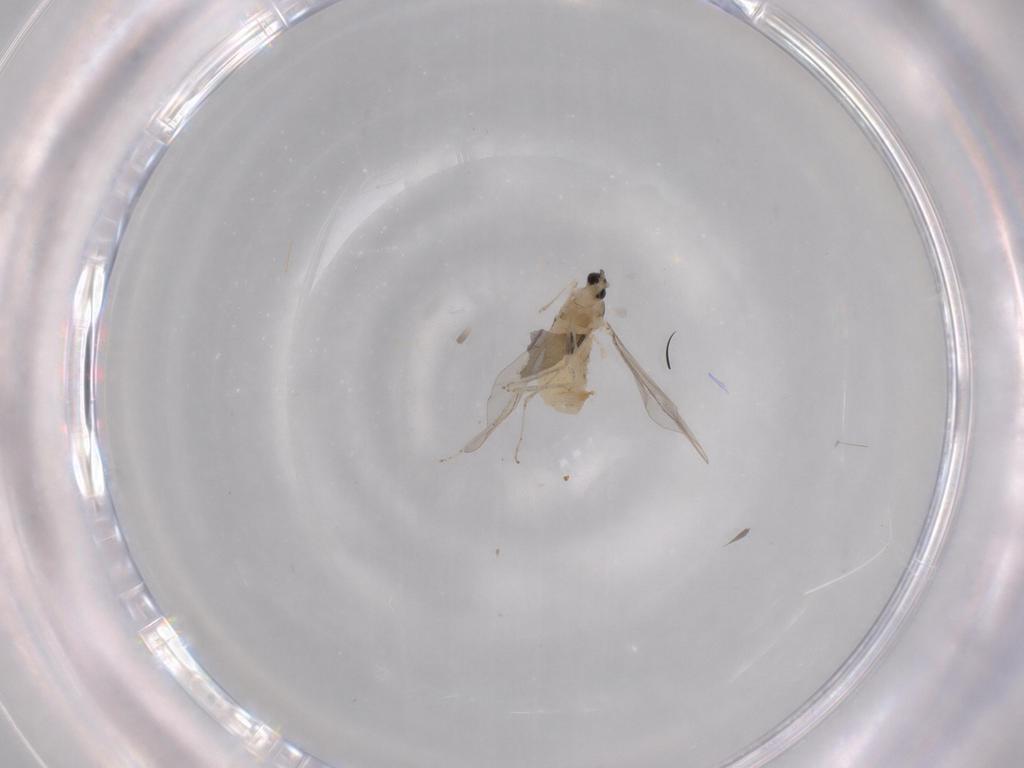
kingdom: Animalia
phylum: Arthropoda
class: Insecta
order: Diptera
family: Cecidomyiidae
